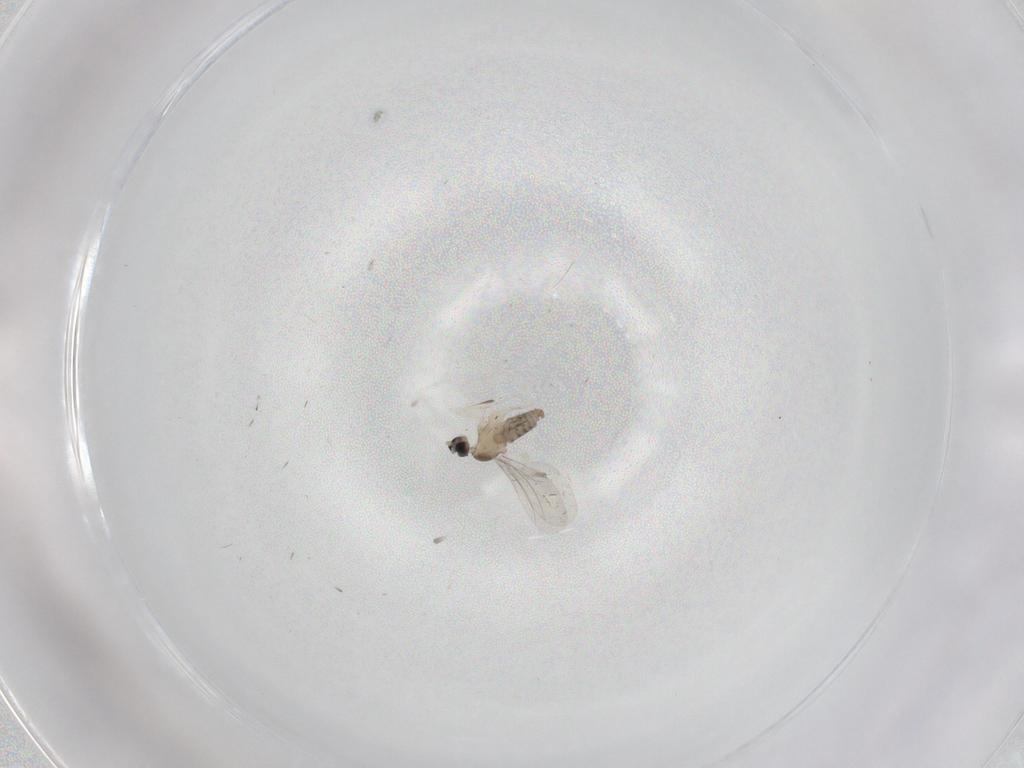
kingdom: Animalia
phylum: Arthropoda
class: Insecta
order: Diptera
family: Cecidomyiidae
